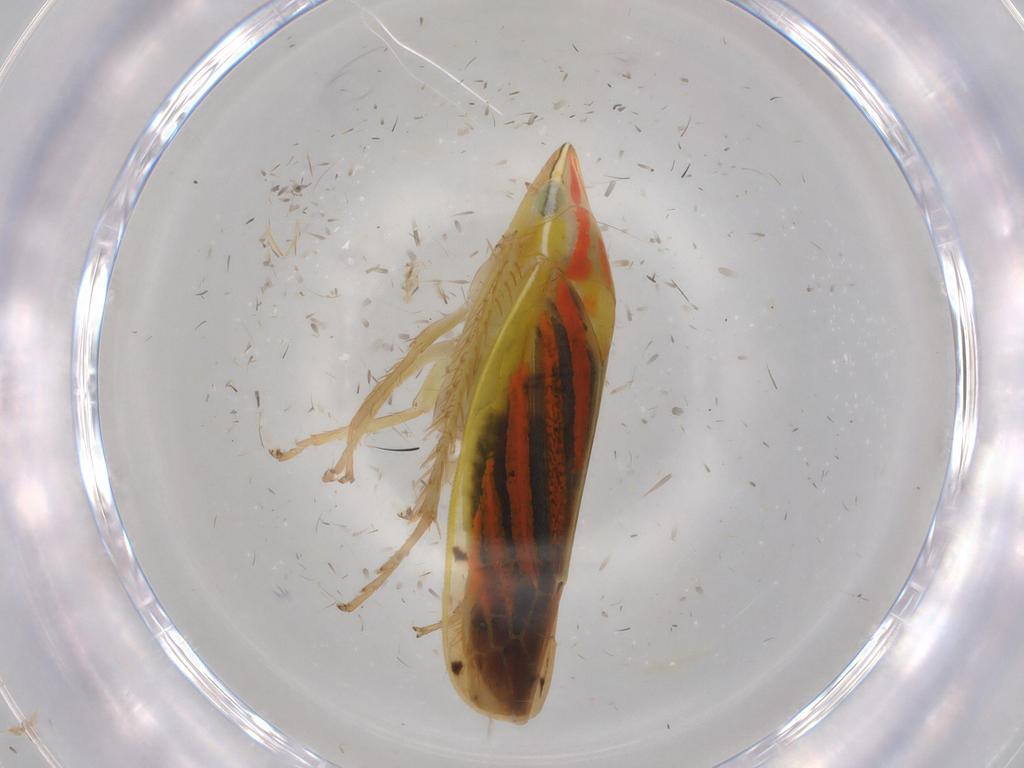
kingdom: Animalia
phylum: Arthropoda
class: Insecta
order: Hemiptera
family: Cicadellidae
